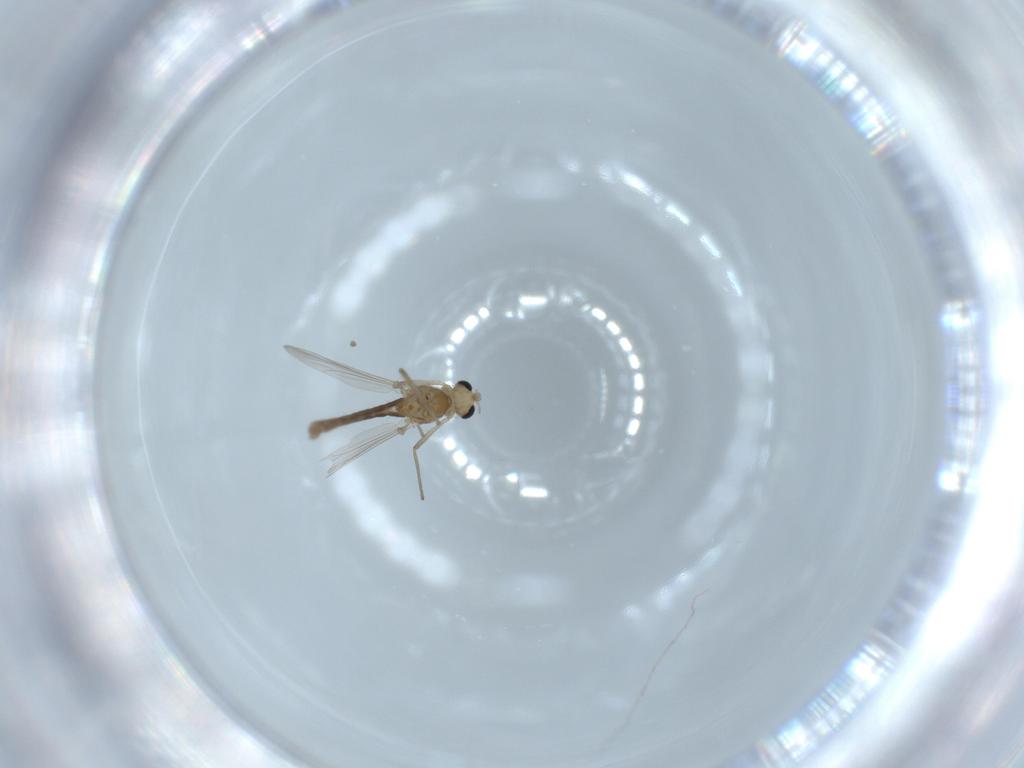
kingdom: Animalia
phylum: Arthropoda
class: Insecta
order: Diptera
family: Chironomidae
